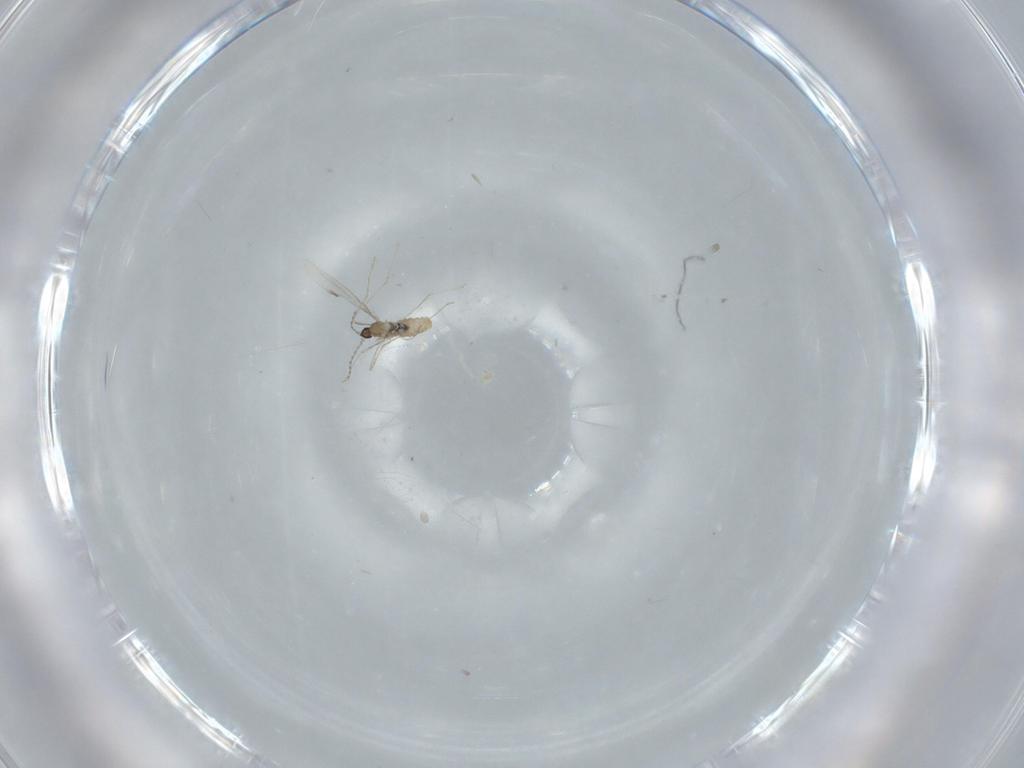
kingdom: Animalia
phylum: Arthropoda
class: Insecta
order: Diptera
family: Cecidomyiidae
